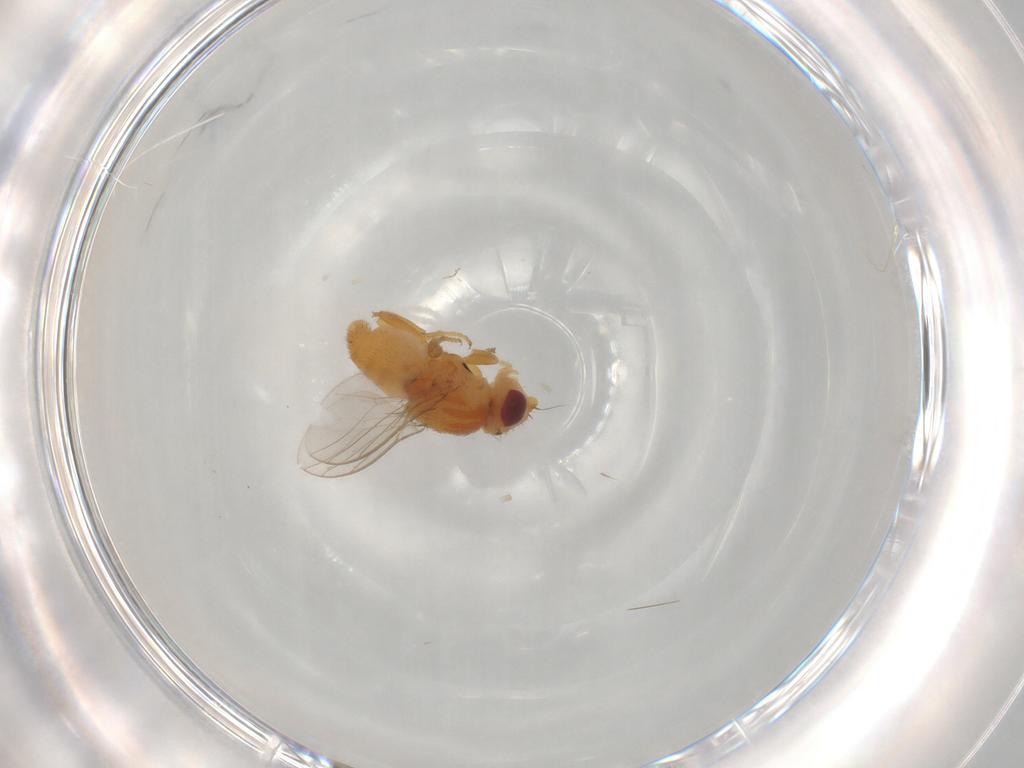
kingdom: Animalia
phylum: Arthropoda
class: Insecta
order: Diptera
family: Chloropidae
